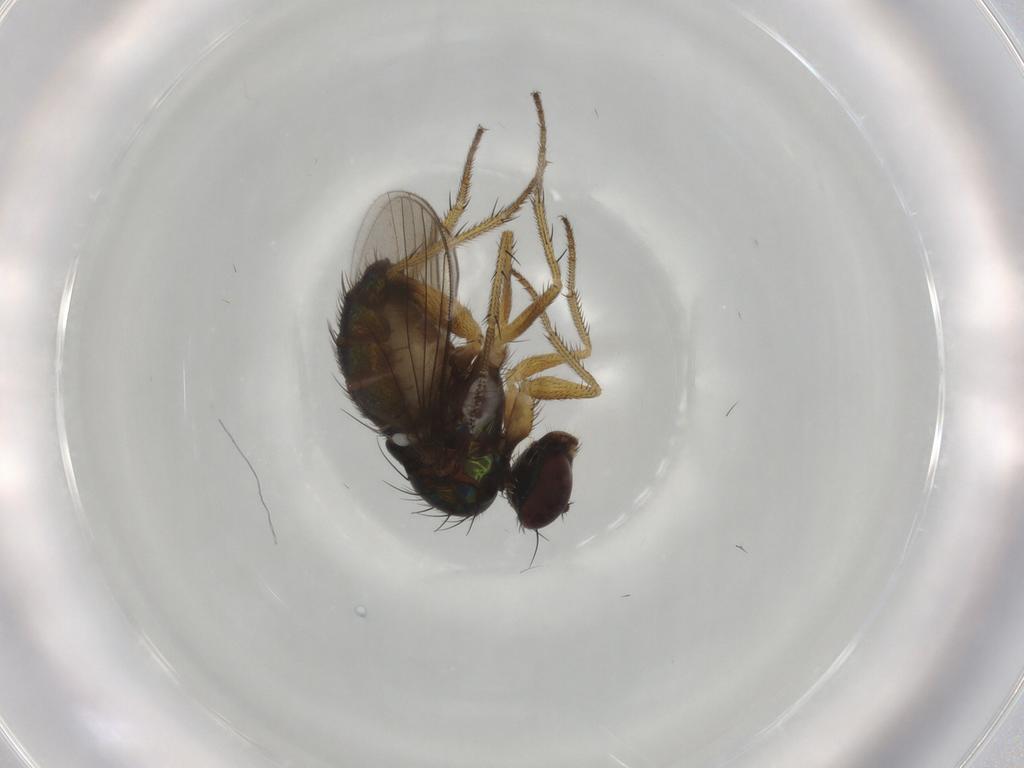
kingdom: Animalia
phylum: Arthropoda
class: Insecta
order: Diptera
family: Dolichopodidae
